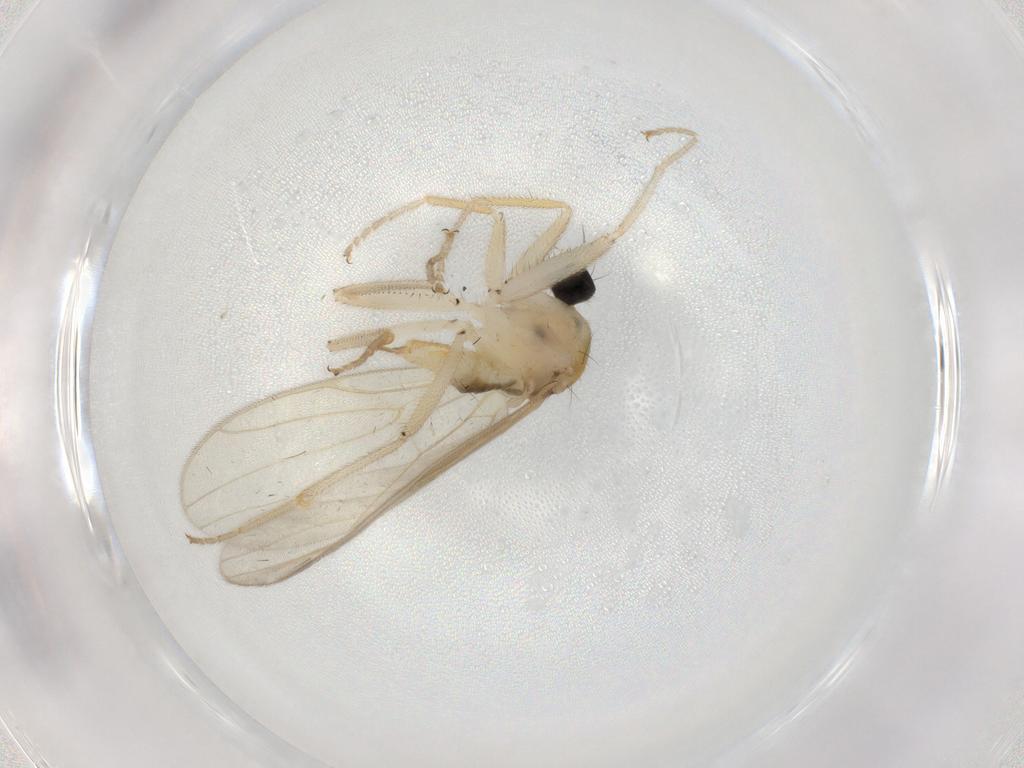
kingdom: Animalia
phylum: Arthropoda
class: Insecta
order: Diptera
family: Hybotidae
